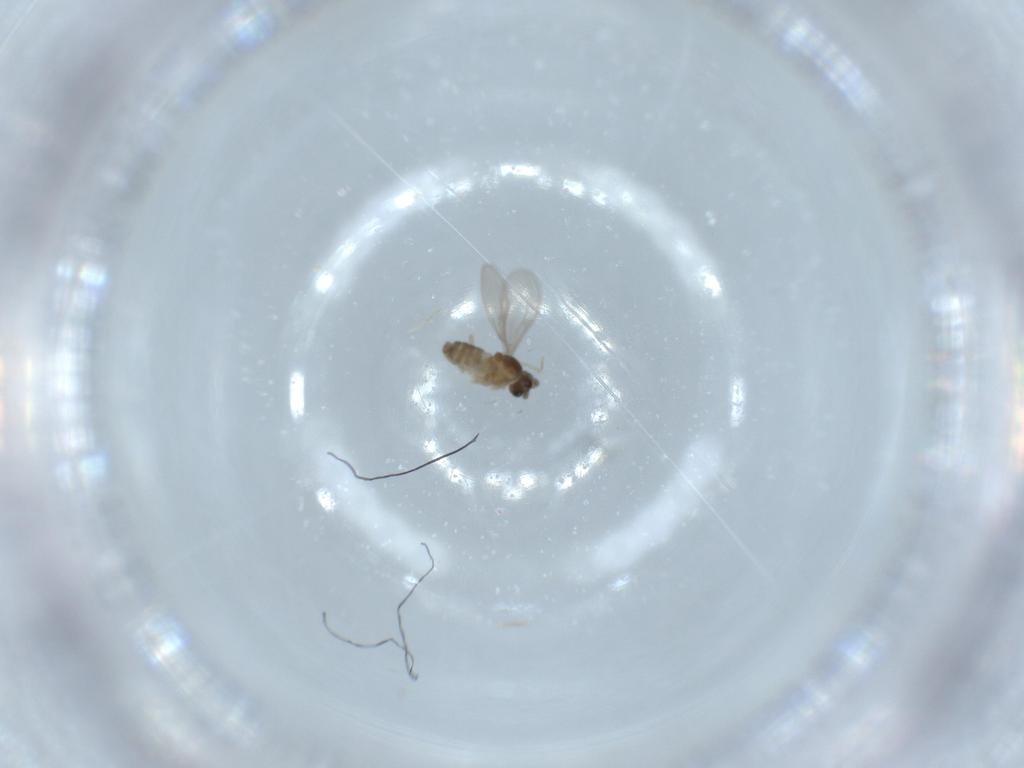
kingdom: Animalia
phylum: Arthropoda
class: Insecta
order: Diptera
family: Cecidomyiidae
